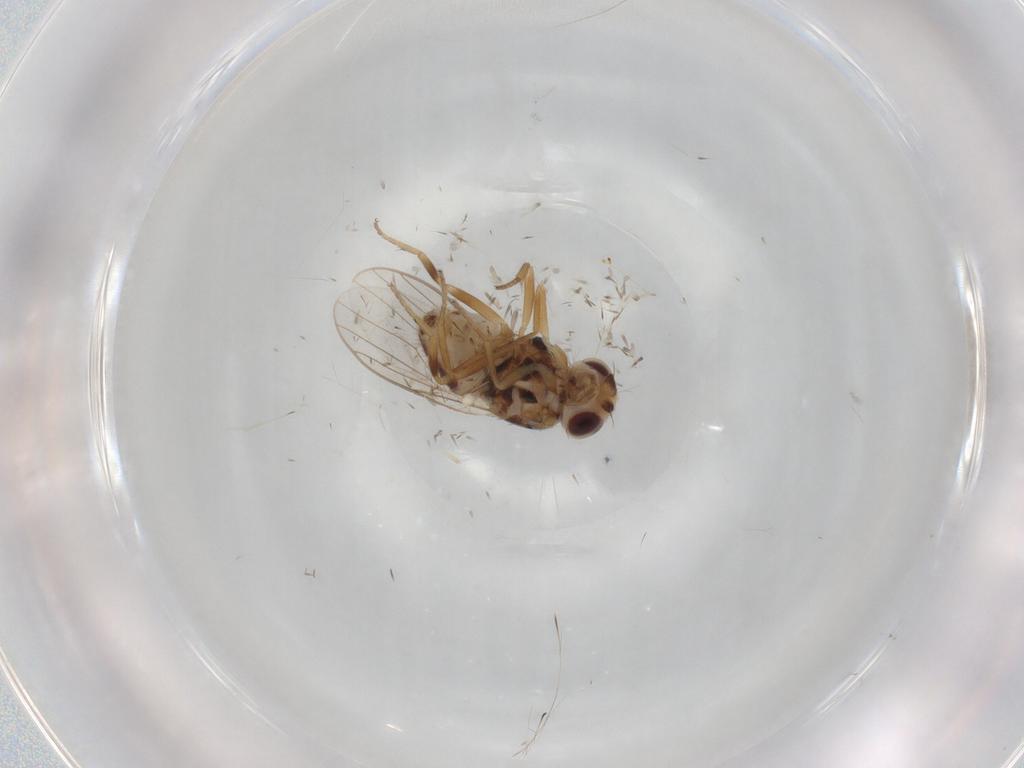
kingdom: Animalia
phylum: Arthropoda
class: Insecta
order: Diptera
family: Chloropidae
